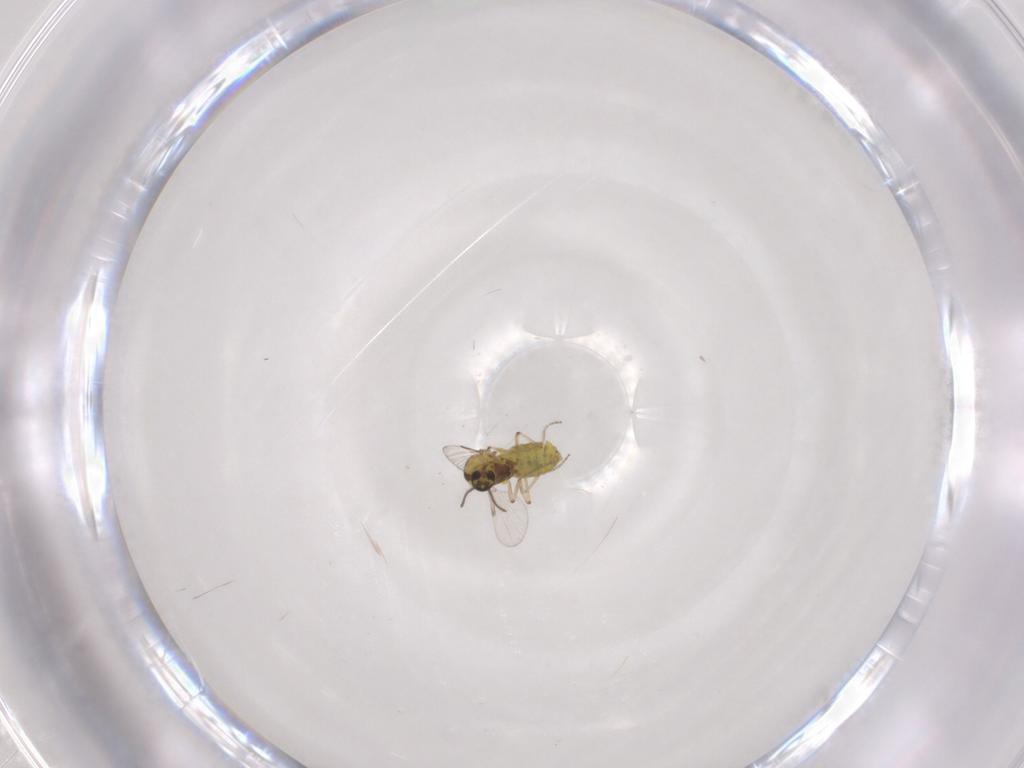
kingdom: Animalia
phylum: Arthropoda
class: Insecta
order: Diptera
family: Ceratopogonidae
